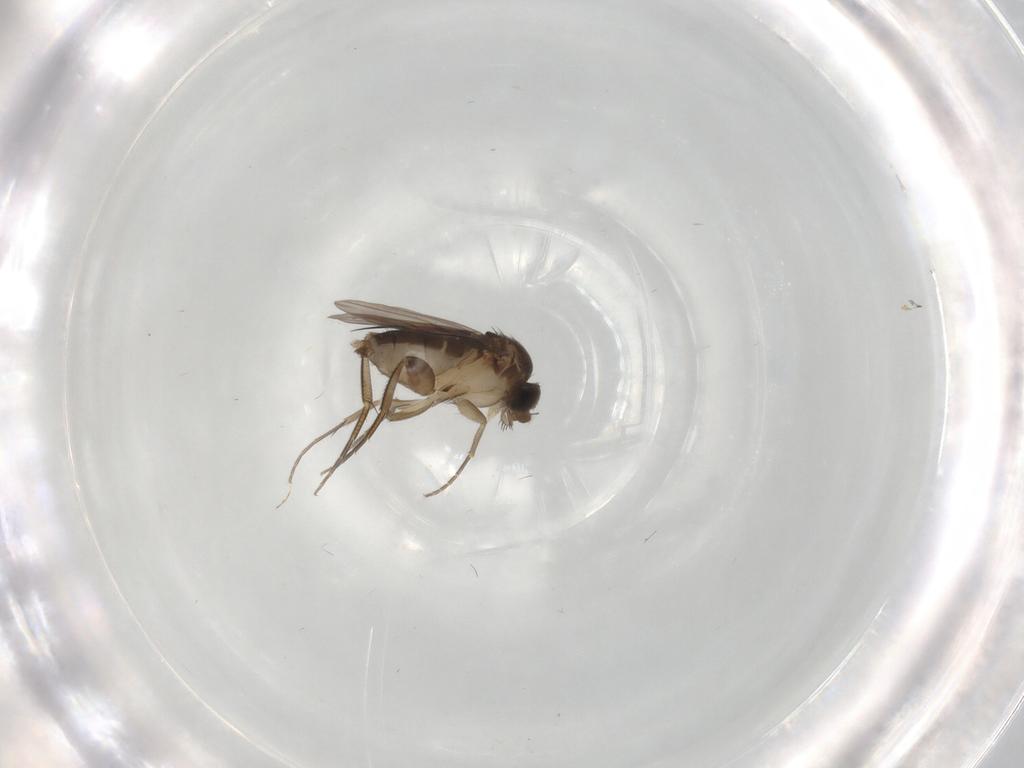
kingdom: Animalia
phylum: Arthropoda
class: Insecta
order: Diptera
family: Phoridae
